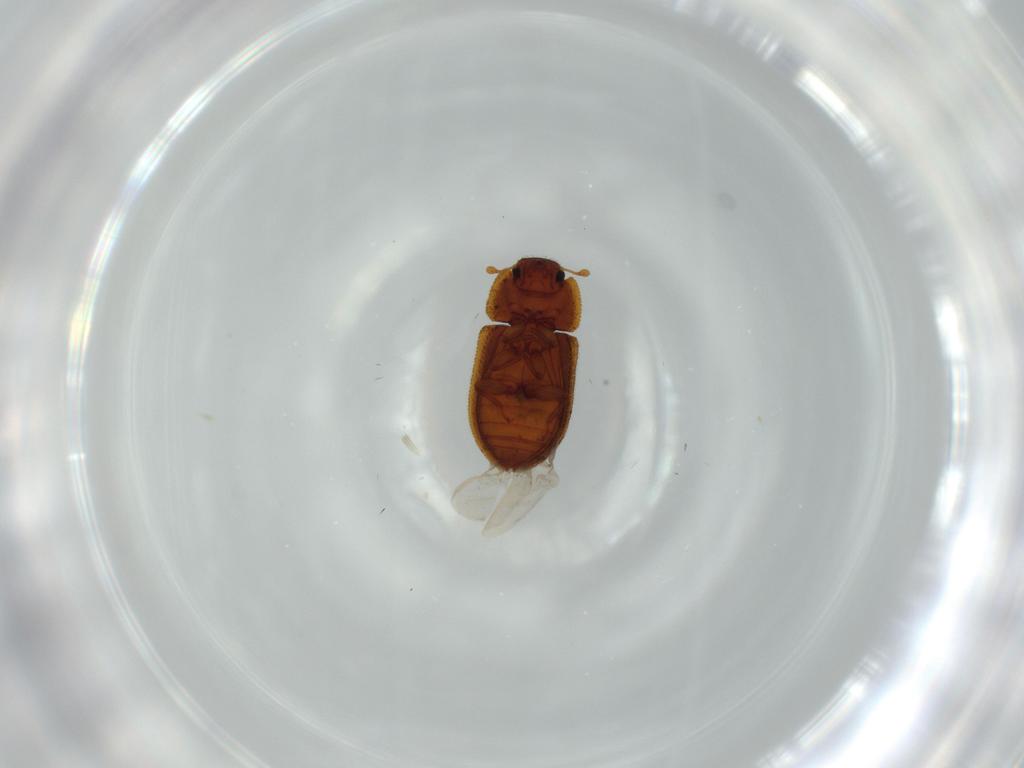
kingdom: Animalia
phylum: Arthropoda
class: Insecta
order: Coleoptera
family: Zopheridae
